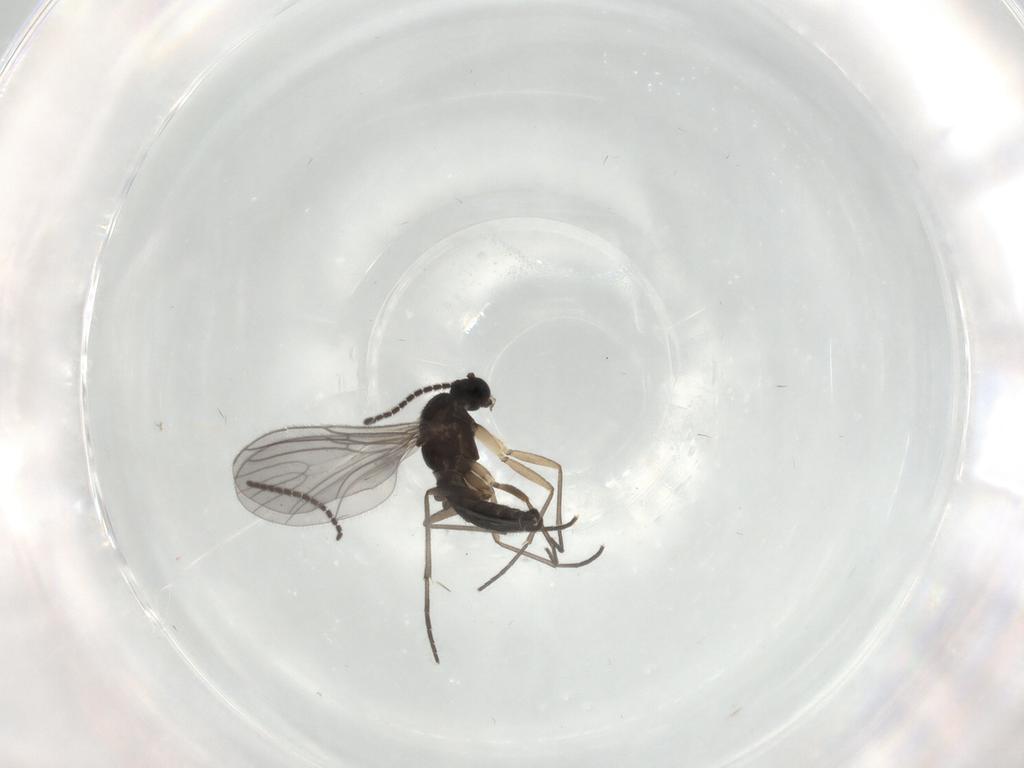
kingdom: Animalia
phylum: Arthropoda
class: Insecta
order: Diptera
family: Sciaridae
